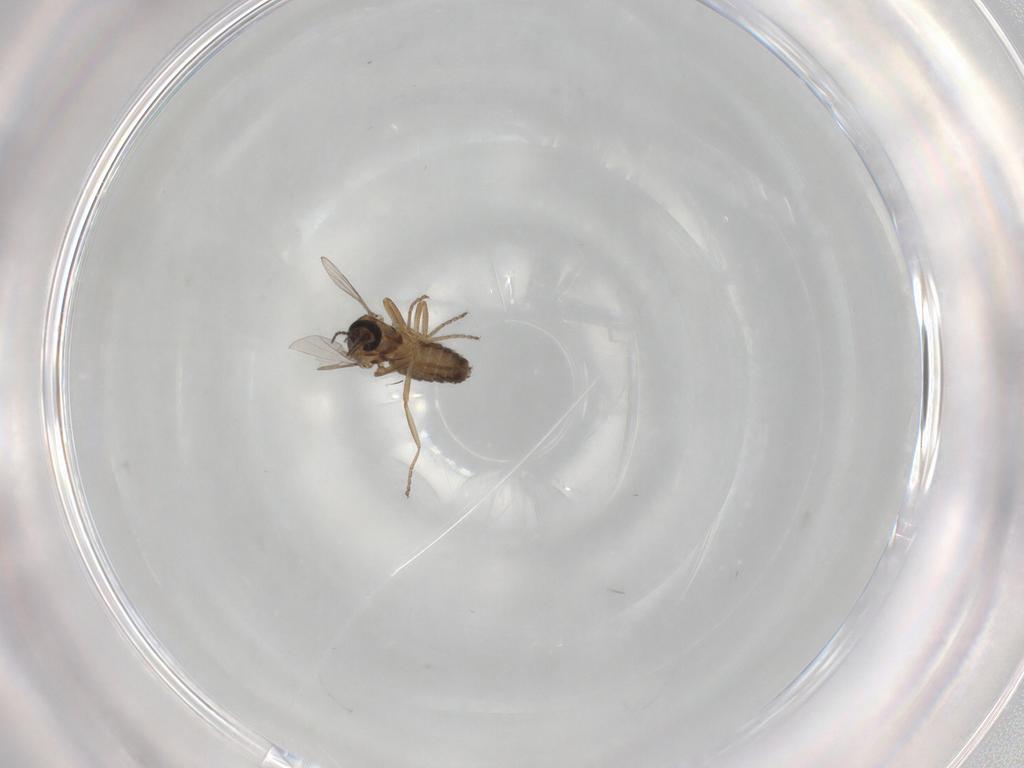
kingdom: Animalia
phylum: Arthropoda
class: Insecta
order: Diptera
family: Ceratopogonidae
